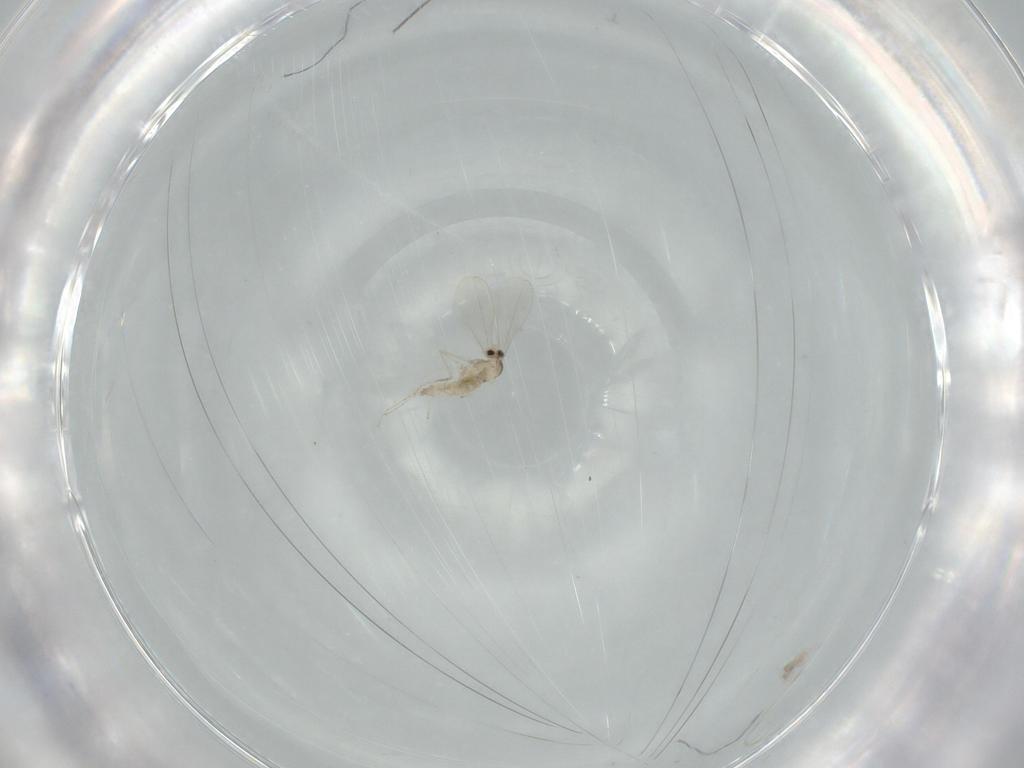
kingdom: Animalia
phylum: Arthropoda
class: Insecta
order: Diptera
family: Cecidomyiidae
